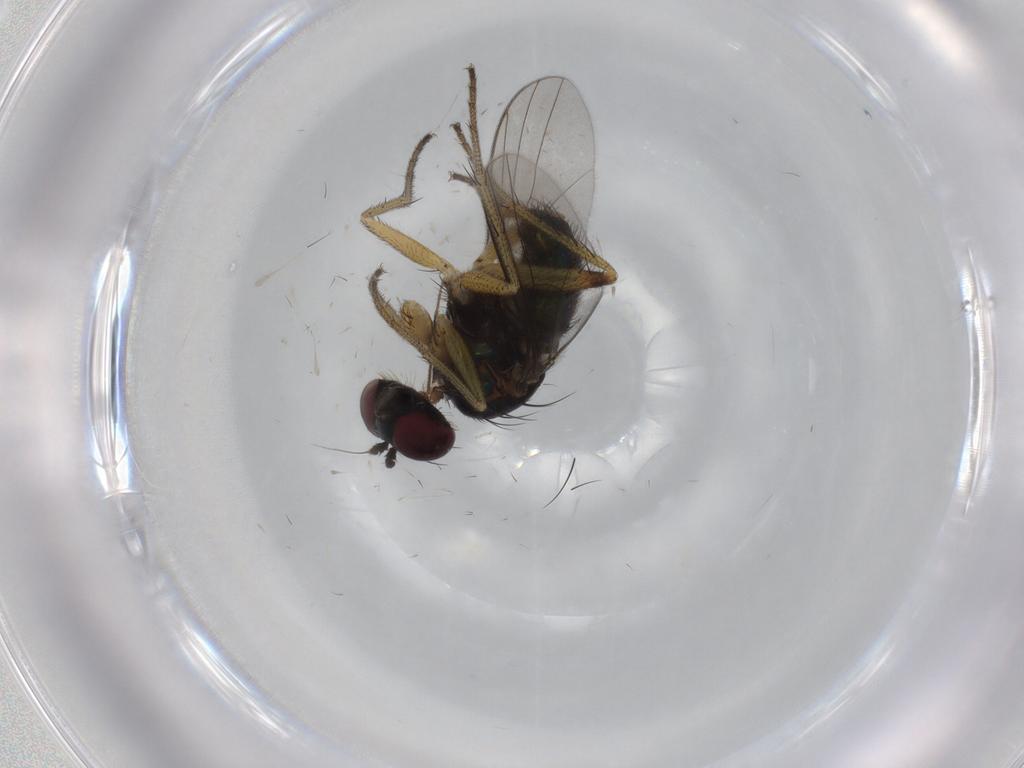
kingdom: Animalia
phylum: Arthropoda
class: Insecta
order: Diptera
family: Dolichopodidae
